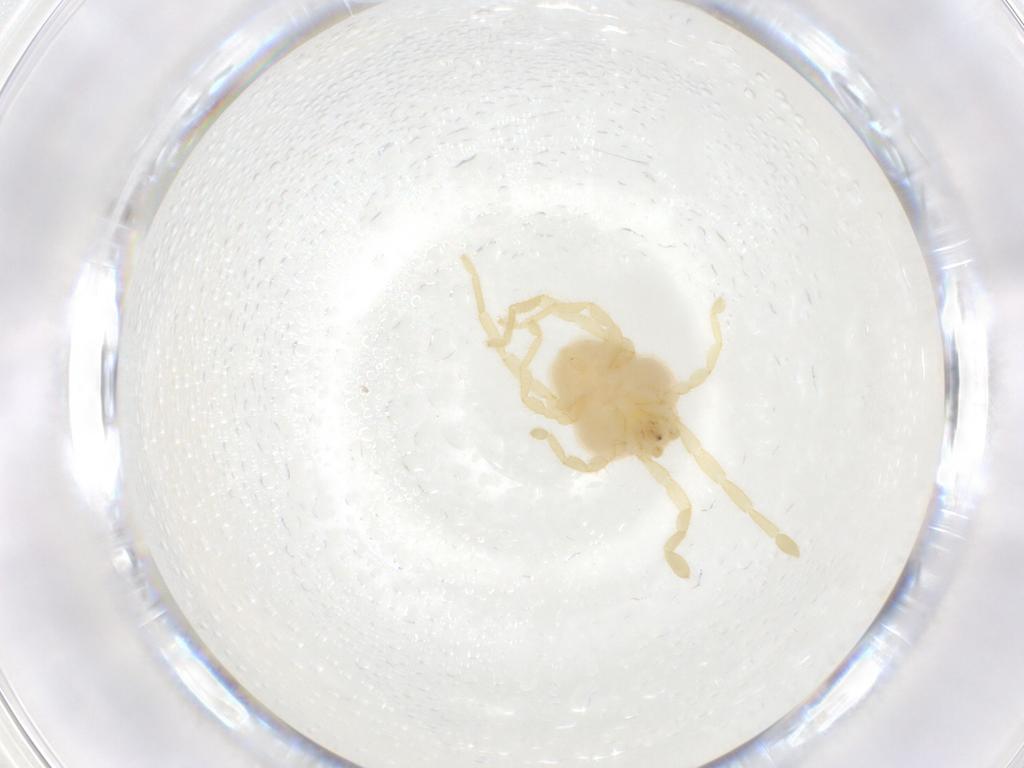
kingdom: Animalia
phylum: Arthropoda
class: Arachnida
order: Trombidiformes
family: Erythraeidae
